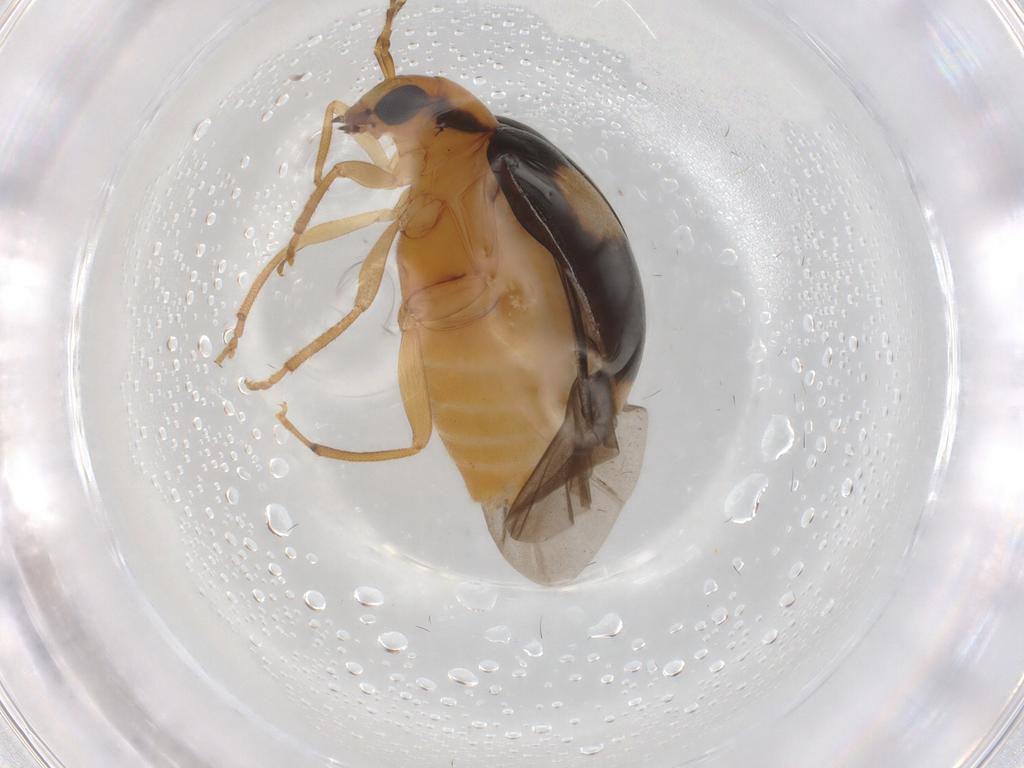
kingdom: Animalia
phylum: Arthropoda
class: Insecta
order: Coleoptera
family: Chrysomelidae
